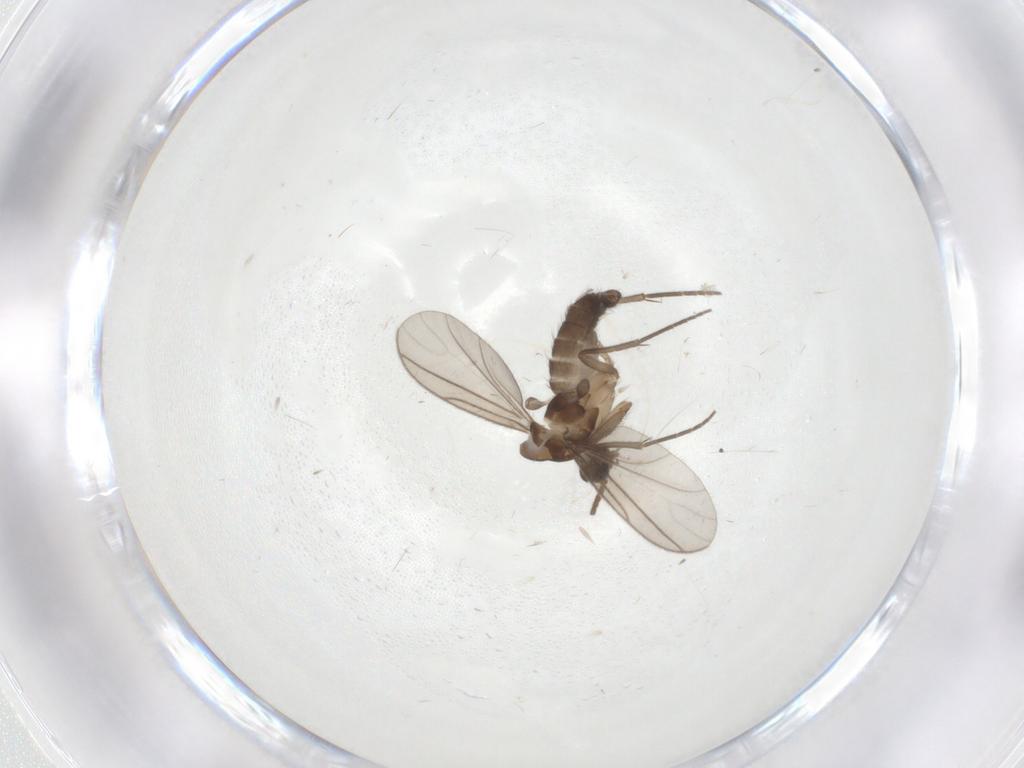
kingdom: Animalia
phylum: Arthropoda
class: Insecta
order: Diptera
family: Sciaridae
